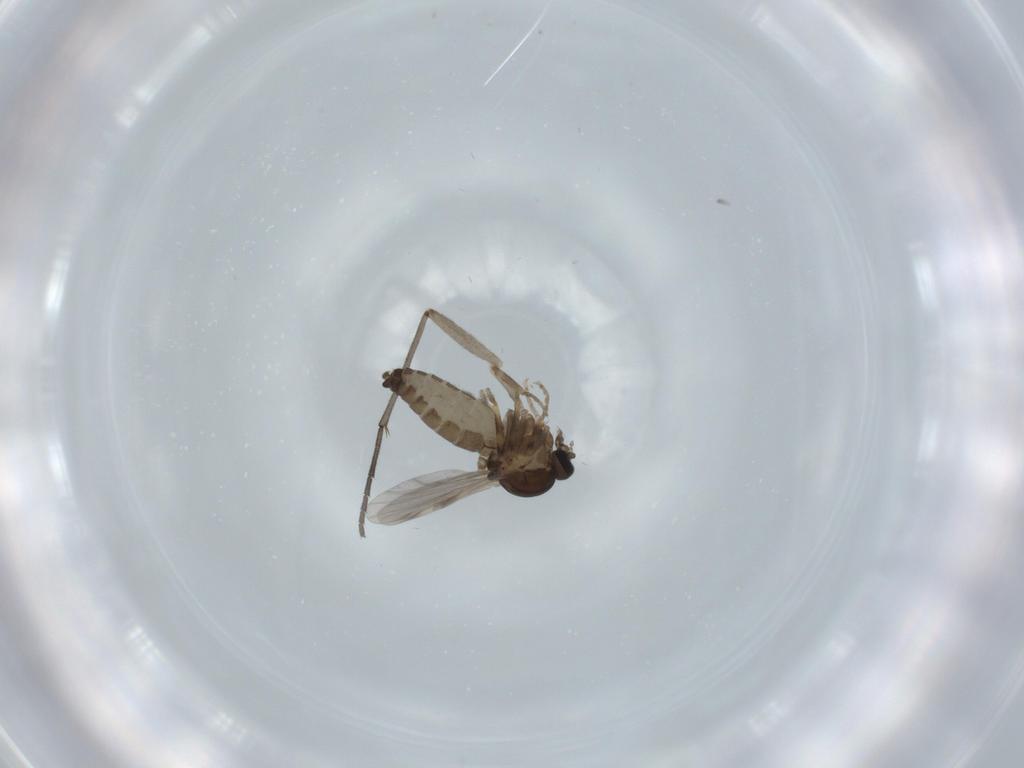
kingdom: Animalia
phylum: Arthropoda
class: Insecta
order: Diptera
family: Ceratopogonidae
